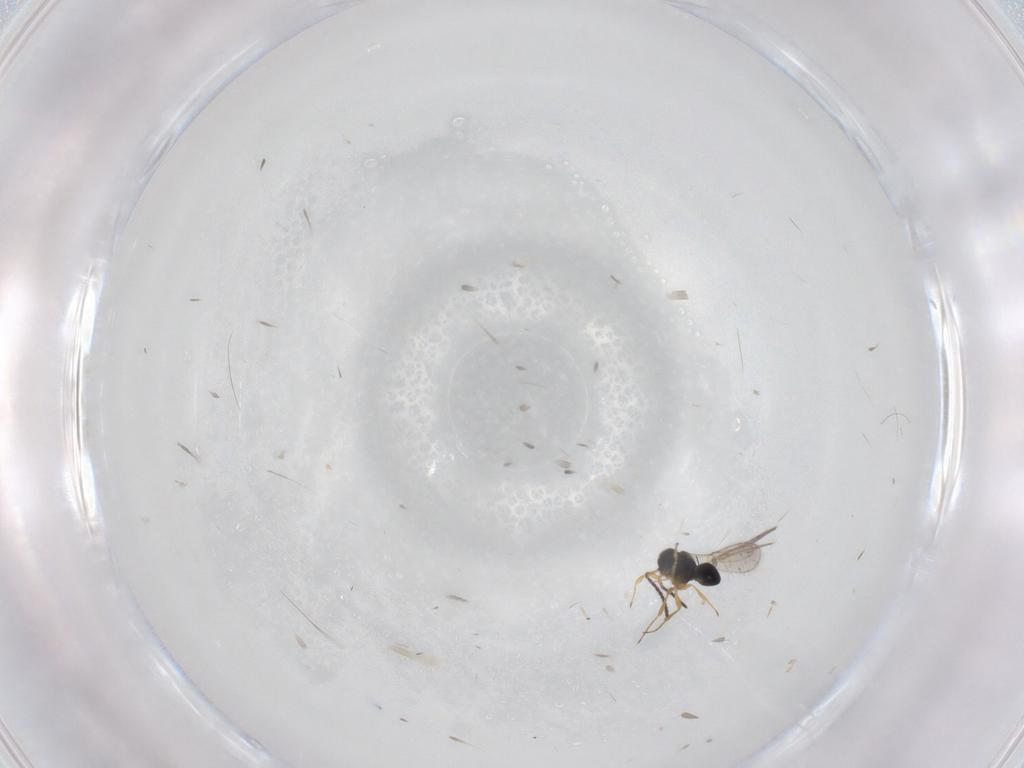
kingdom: Animalia
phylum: Arthropoda
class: Insecta
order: Hymenoptera
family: Scelionidae
